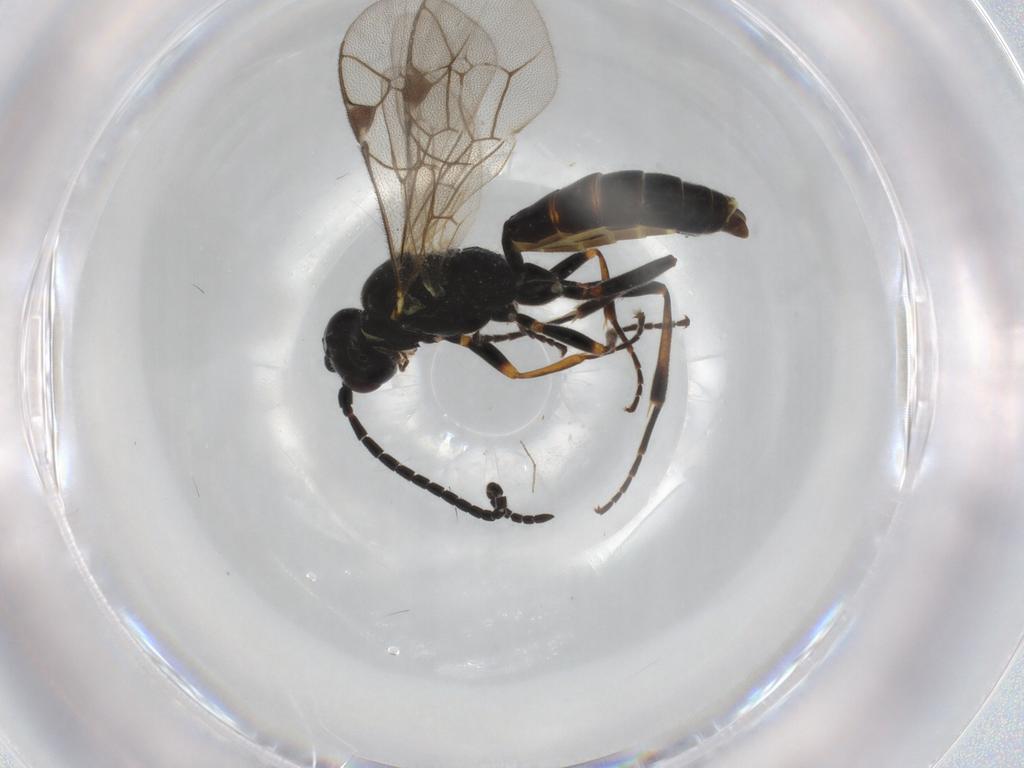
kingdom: Animalia
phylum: Arthropoda
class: Insecta
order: Hymenoptera
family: Ichneumonidae
